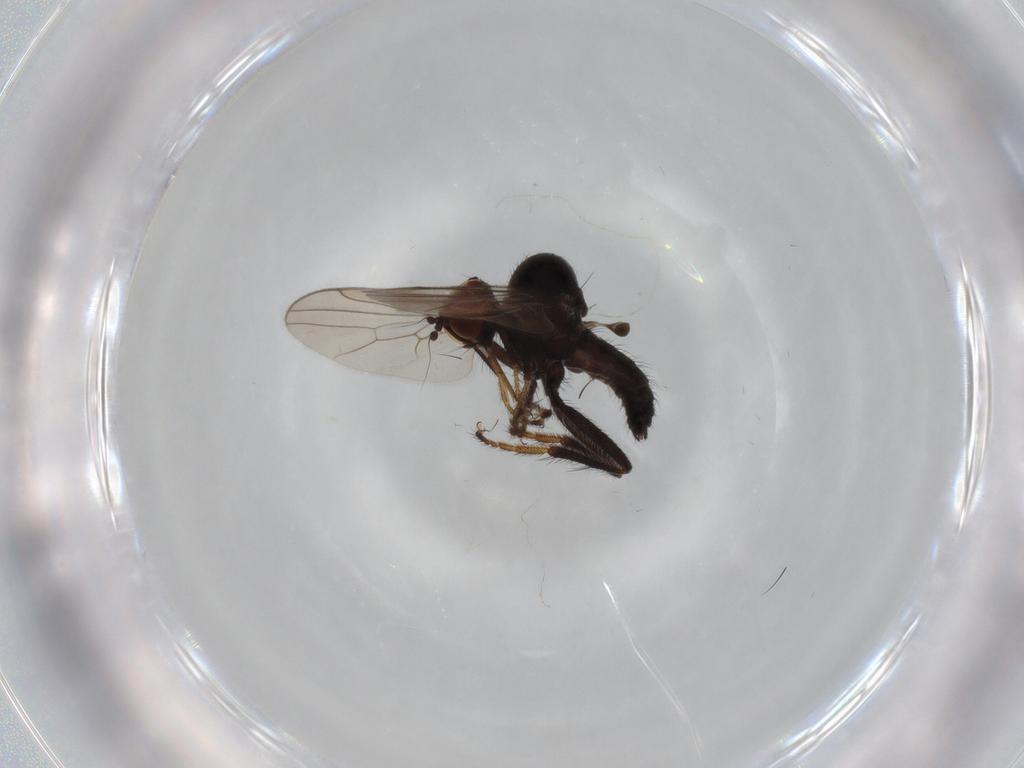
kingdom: Animalia
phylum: Arthropoda
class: Insecta
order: Diptera
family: Hybotidae
